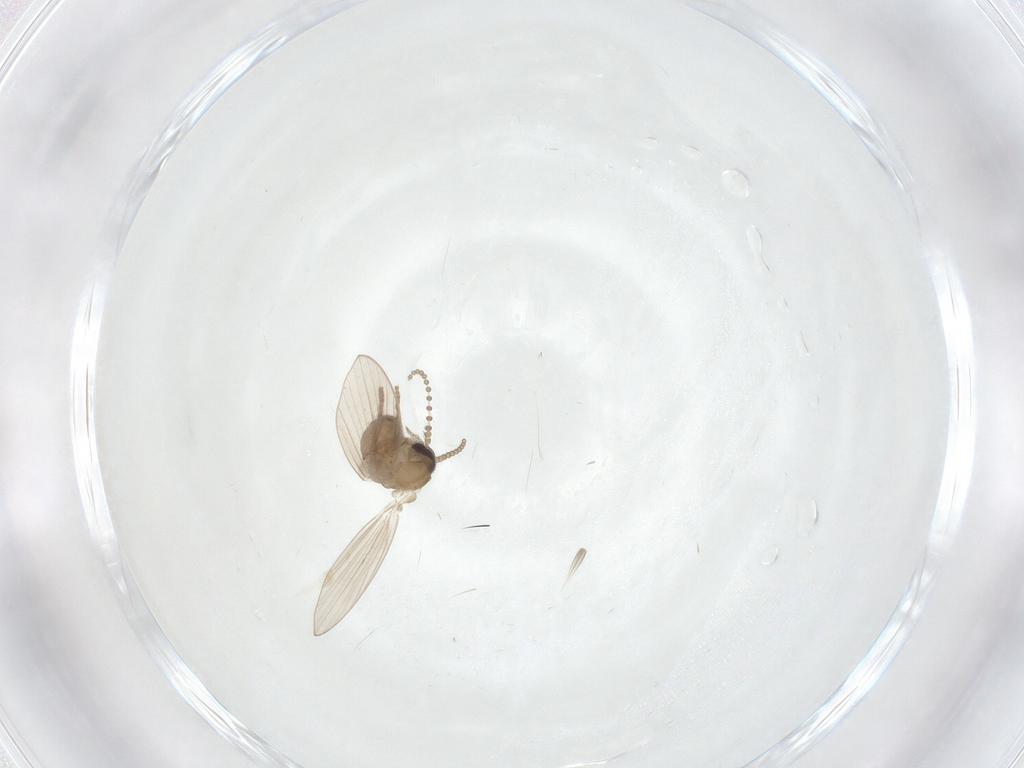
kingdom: Animalia
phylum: Arthropoda
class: Insecta
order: Diptera
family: Psychodidae
